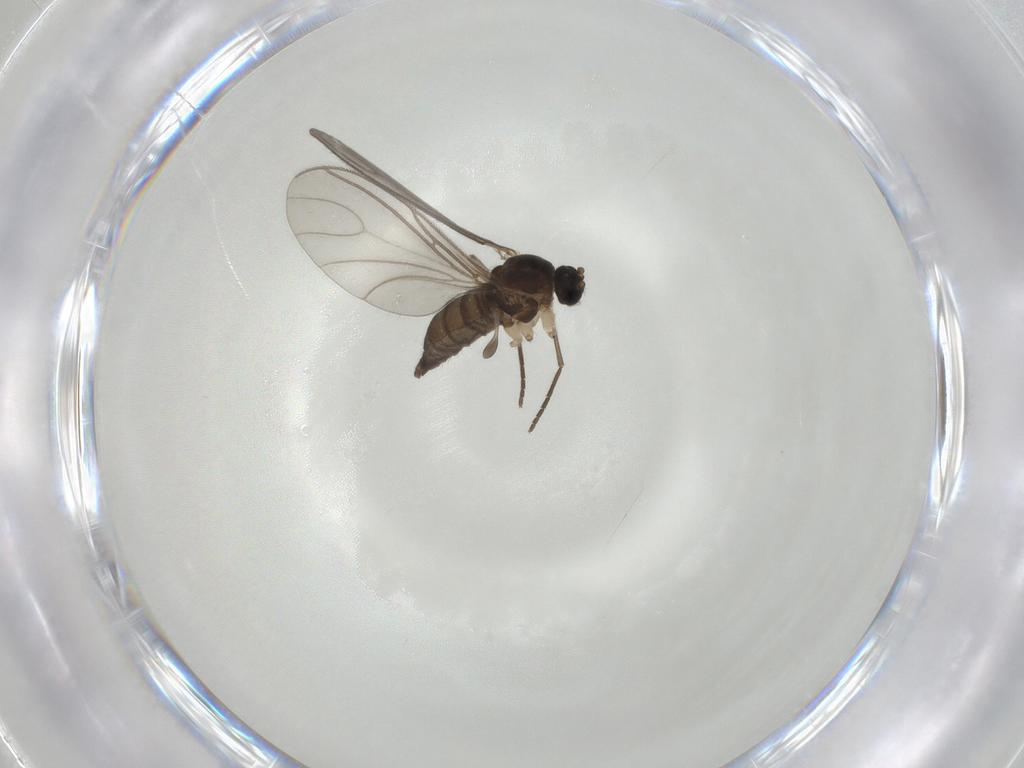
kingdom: Animalia
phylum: Arthropoda
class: Insecta
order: Diptera
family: Sciaridae
